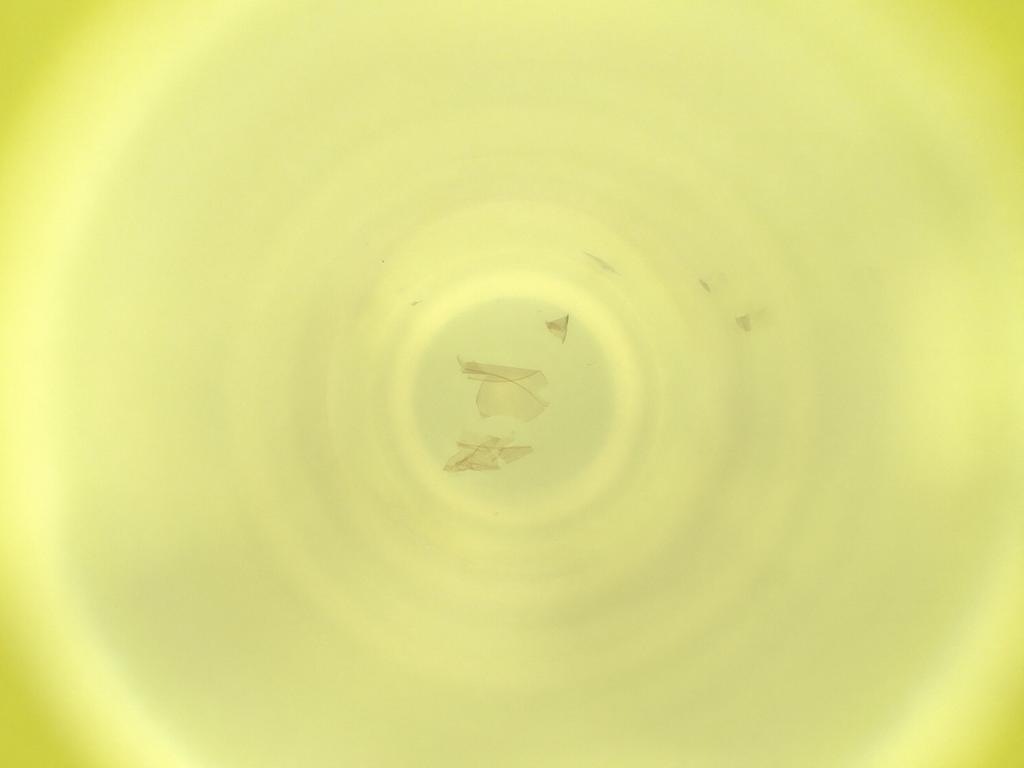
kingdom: Animalia
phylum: Arthropoda
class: Insecta
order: Diptera
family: Cecidomyiidae
